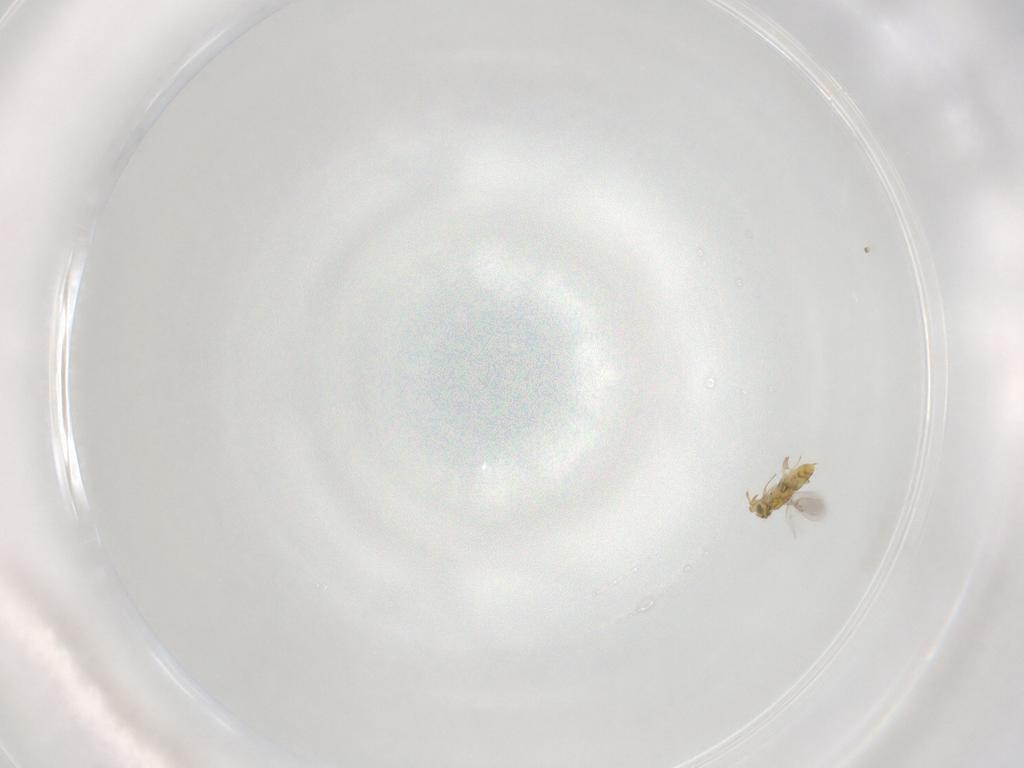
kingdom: Animalia
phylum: Arthropoda
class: Insecta
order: Hymenoptera
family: Aphelinidae
